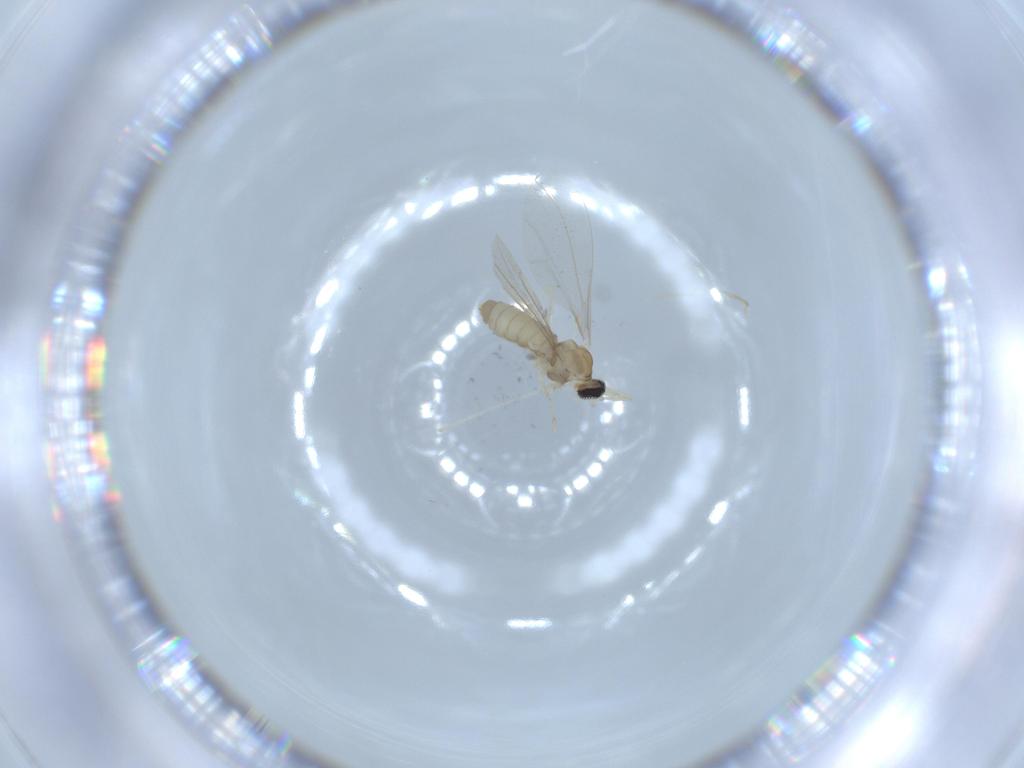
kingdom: Animalia
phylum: Arthropoda
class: Insecta
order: Diptera
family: Cecidomyiidae
